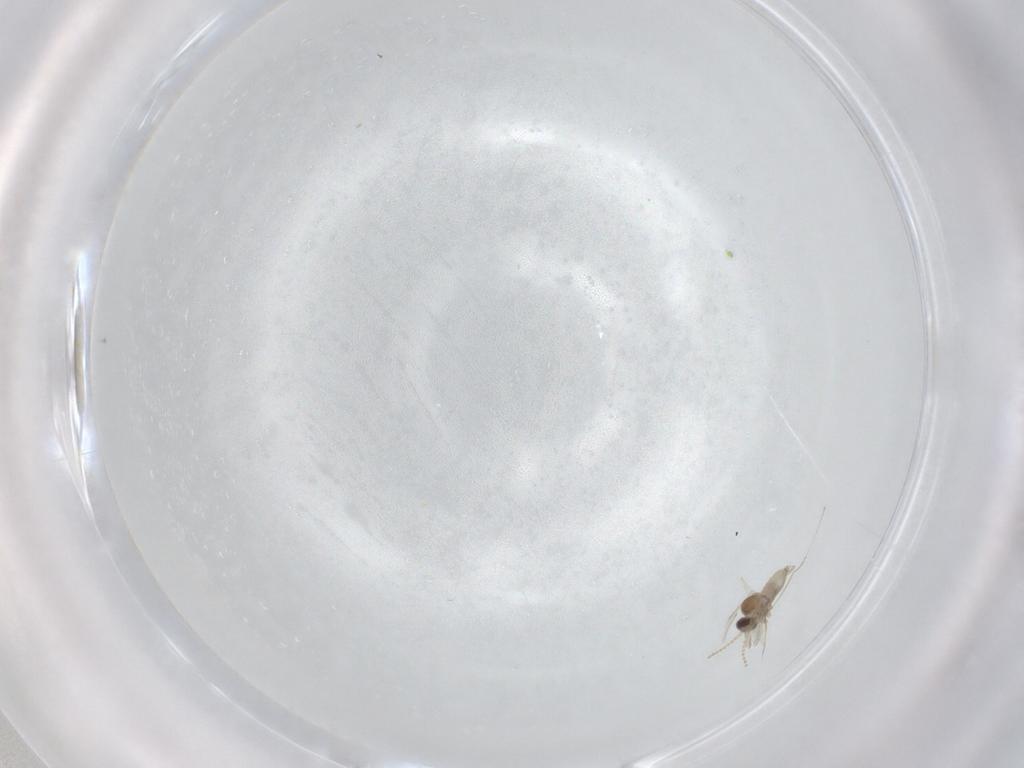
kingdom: Animalia
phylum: Arthropoda
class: Insecta
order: Diptera
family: Cecidomyiidae
